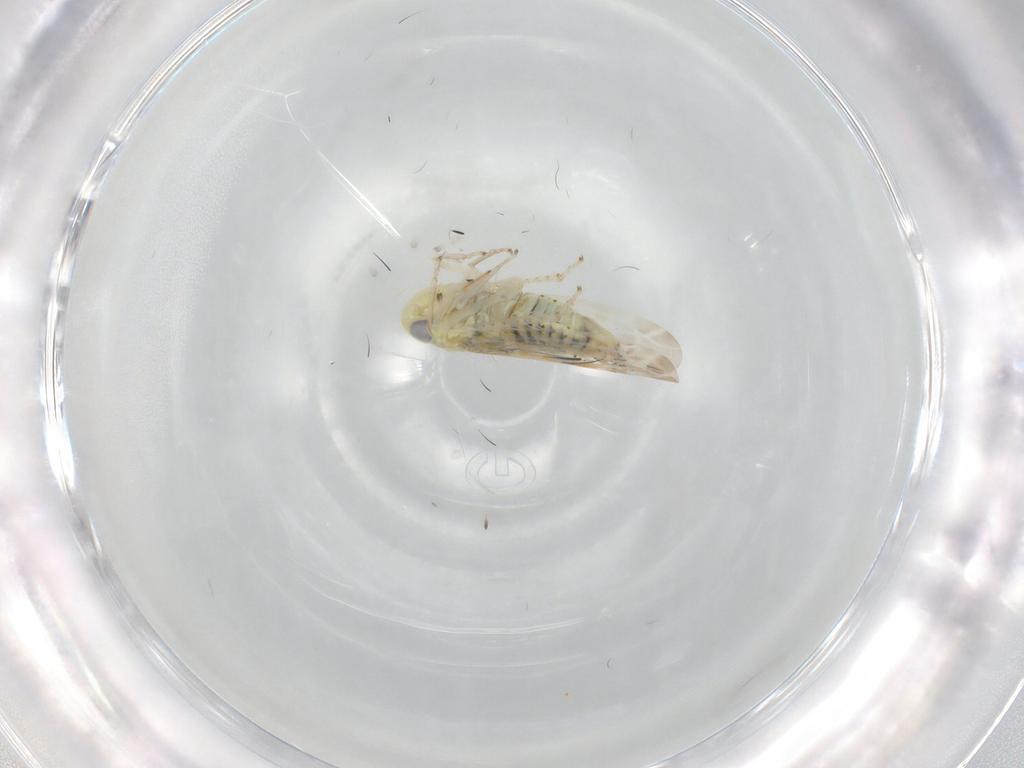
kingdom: Animalia
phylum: Arthropoda
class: Insecta
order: Hemiptera
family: Cicadellidae
